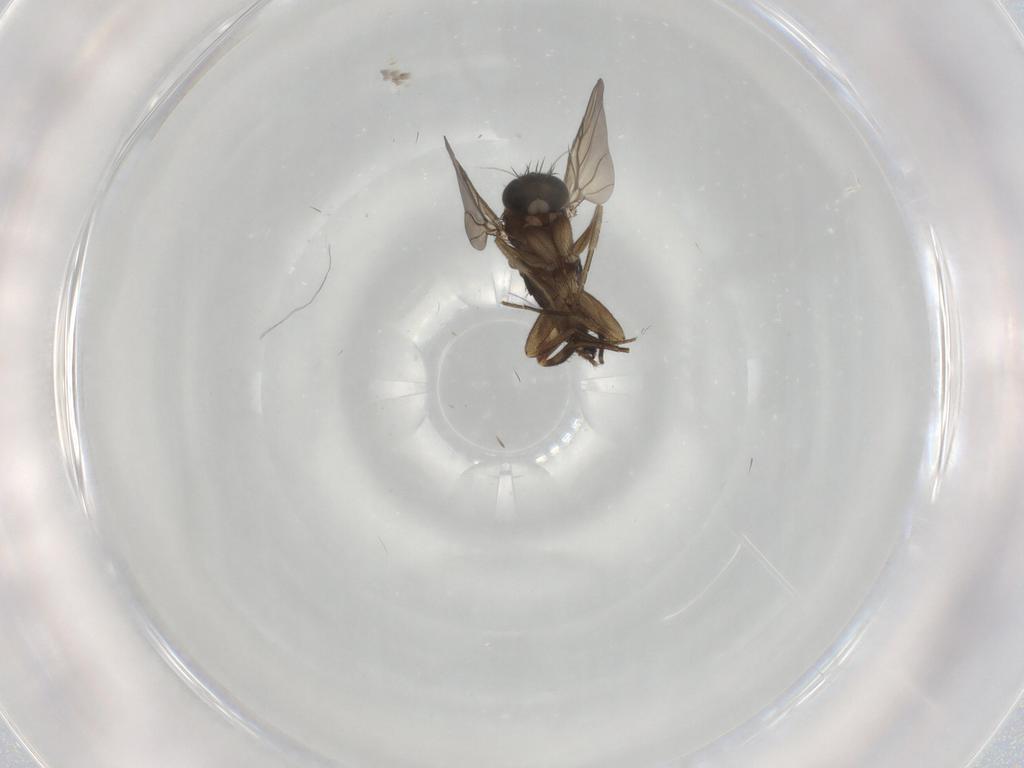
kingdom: Animalia
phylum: Arthropoda
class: Insecta
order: Diptera
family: Phoridae
